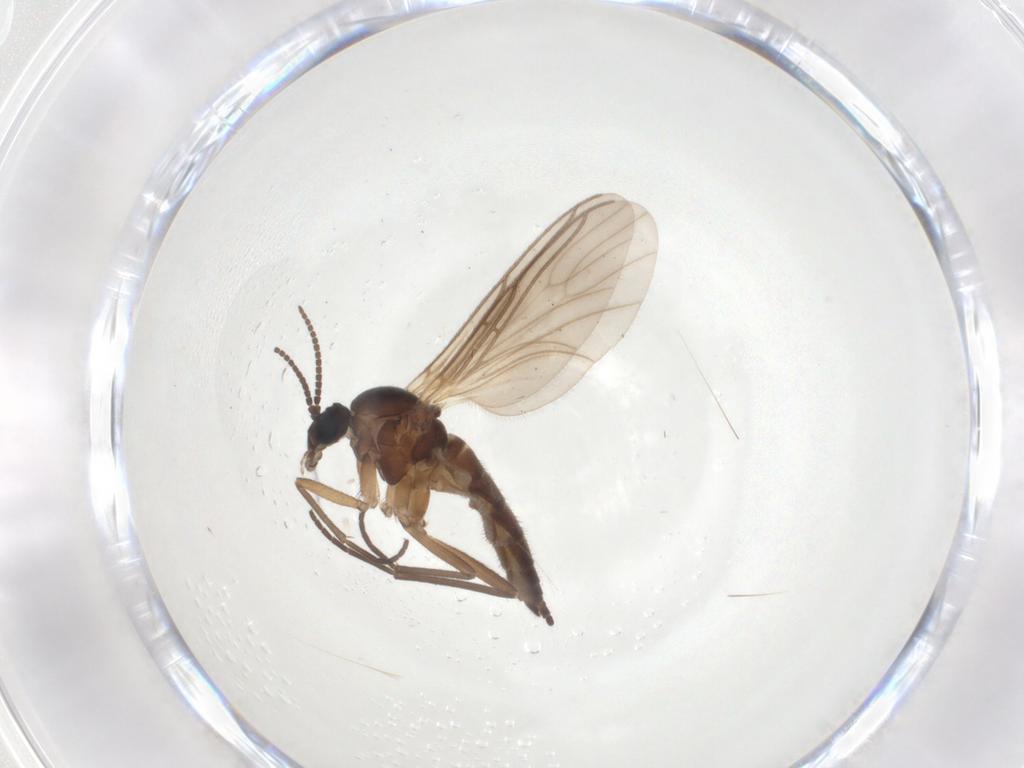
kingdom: Animalia
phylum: Arthropoda
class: Insecta
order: Diptera
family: Sciaridae
